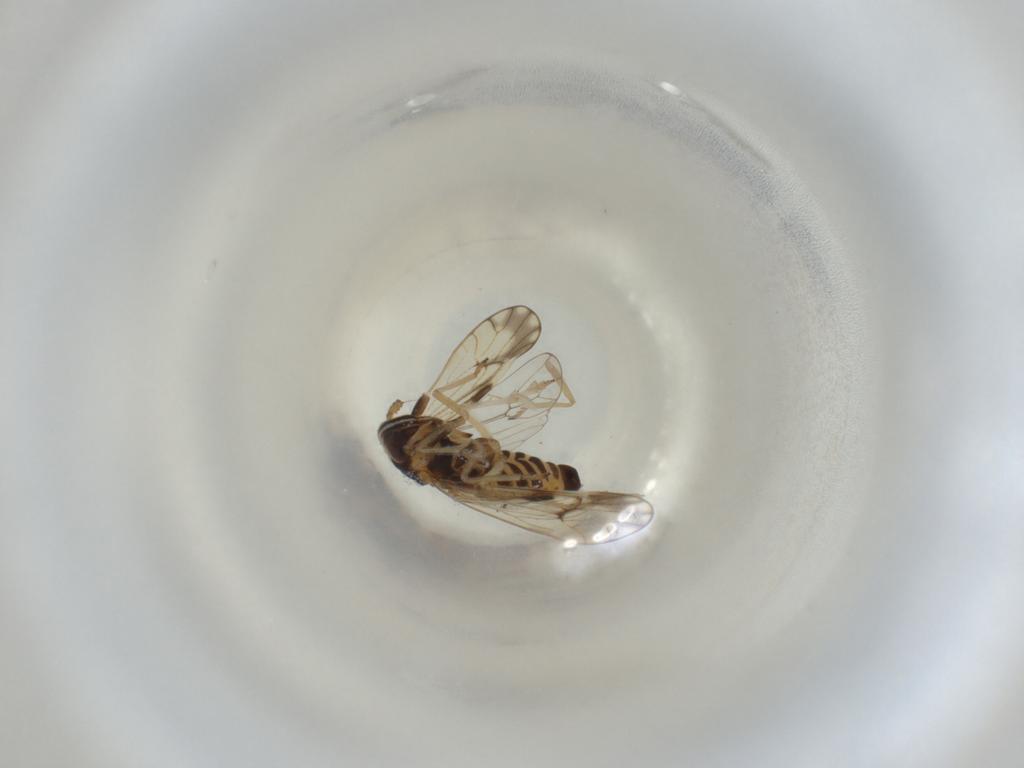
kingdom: Animalia
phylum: Arthropoda
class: Insecta
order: Hemiptera
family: Delphacidae
